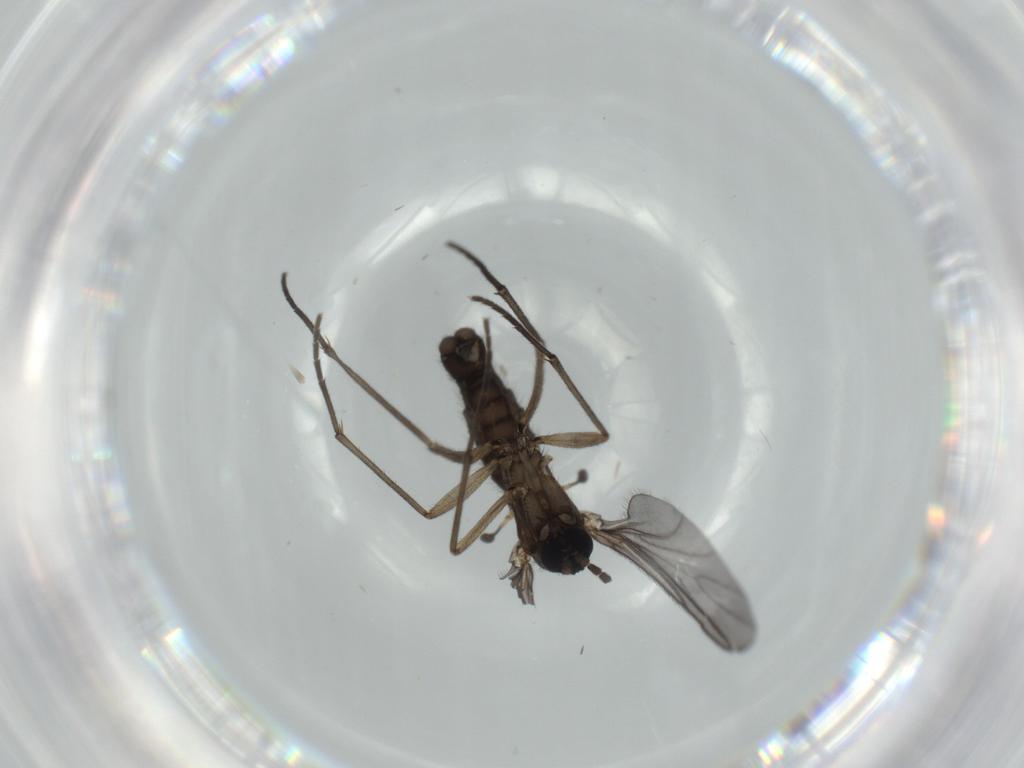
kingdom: Animalia
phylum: Arthropoda
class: Insecta
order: Diptera
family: Sciaridae
